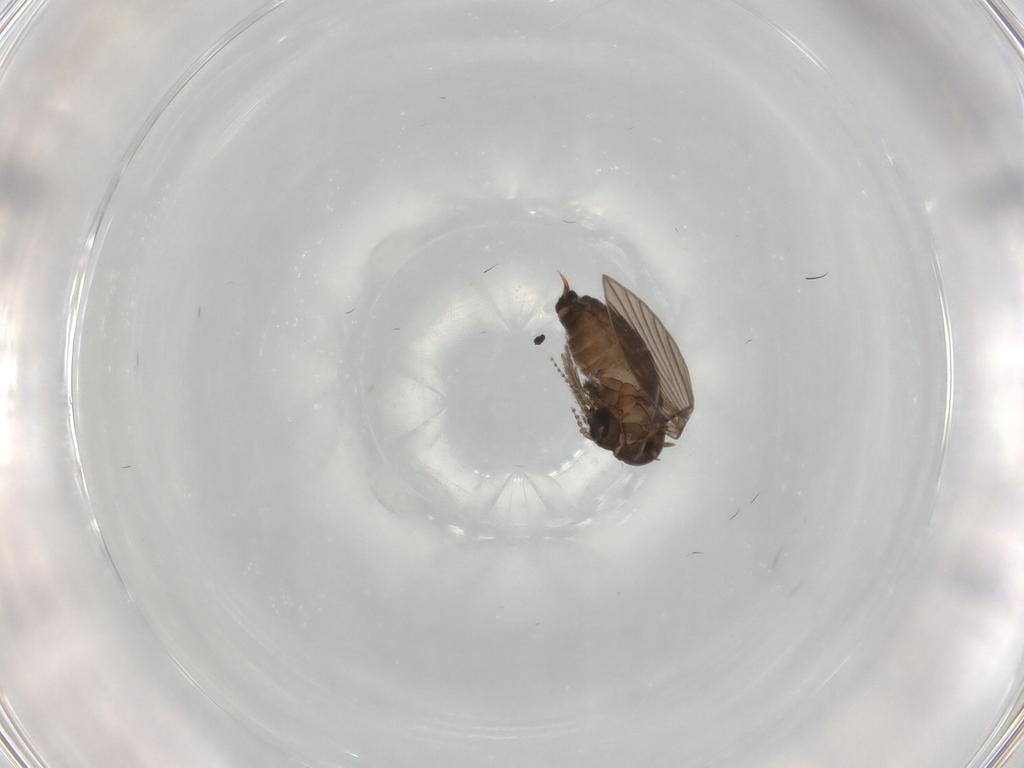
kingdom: Animalia
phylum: Arthropoda
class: Insecta
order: Diptera
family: Psychodidae
